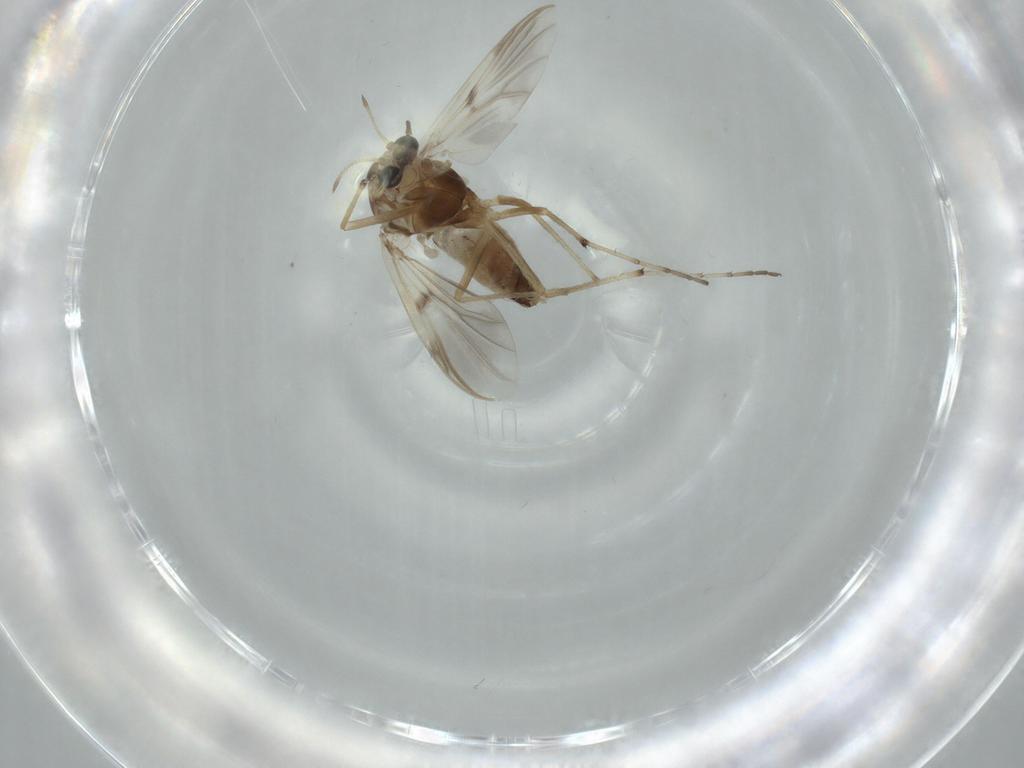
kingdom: Animalia
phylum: Arthropoda
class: Insecta
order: Diptera
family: Chironomidae
